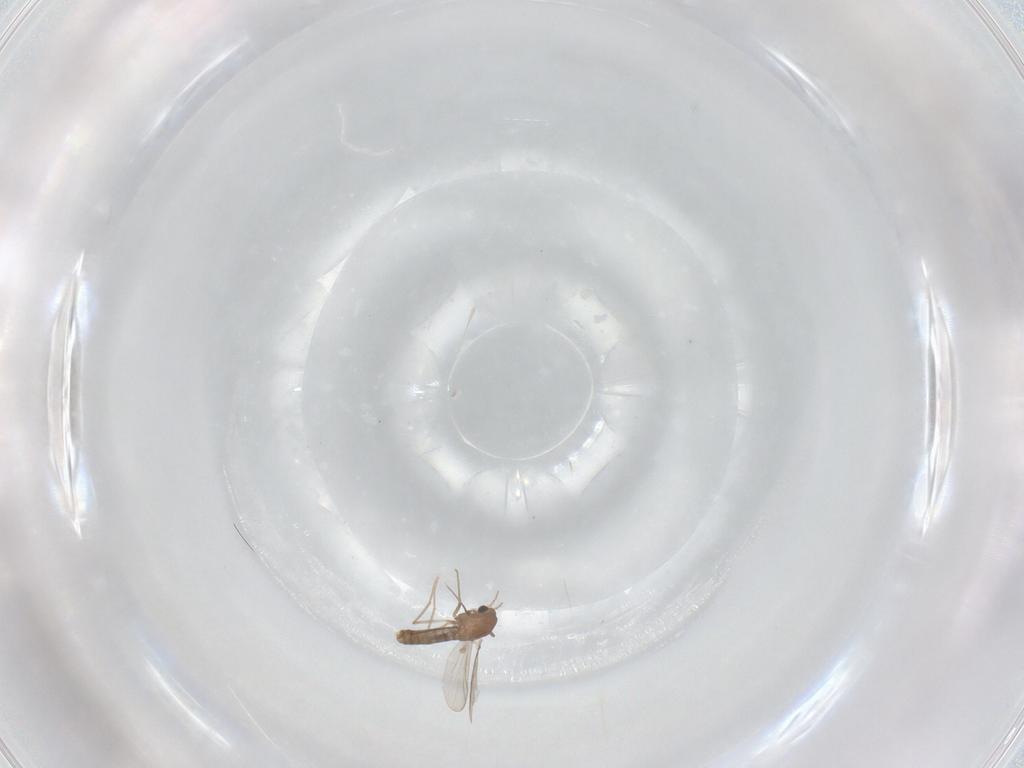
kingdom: Animalia
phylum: Arthropoda
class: Insecta
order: Diptera
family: Chironomidae
